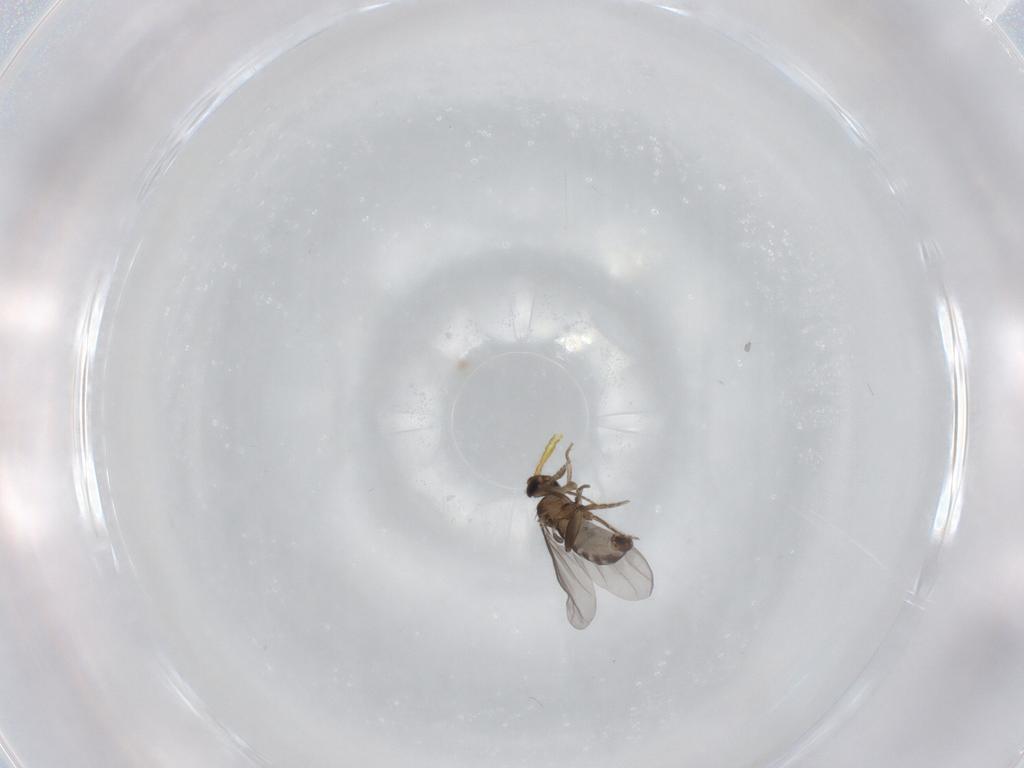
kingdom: Animalia
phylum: Arthropoda
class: Insecta
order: Diptera
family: Phoridae
